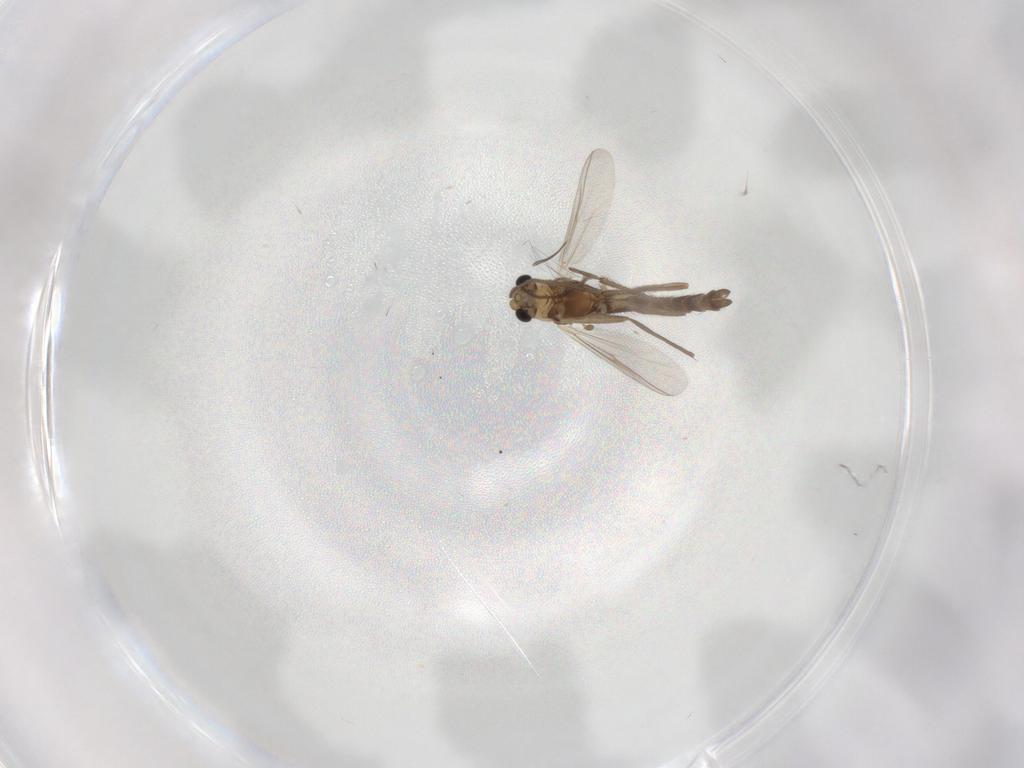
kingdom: Animalia
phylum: Arthropoda
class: Insecta
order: Diptera
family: Chironomidae
